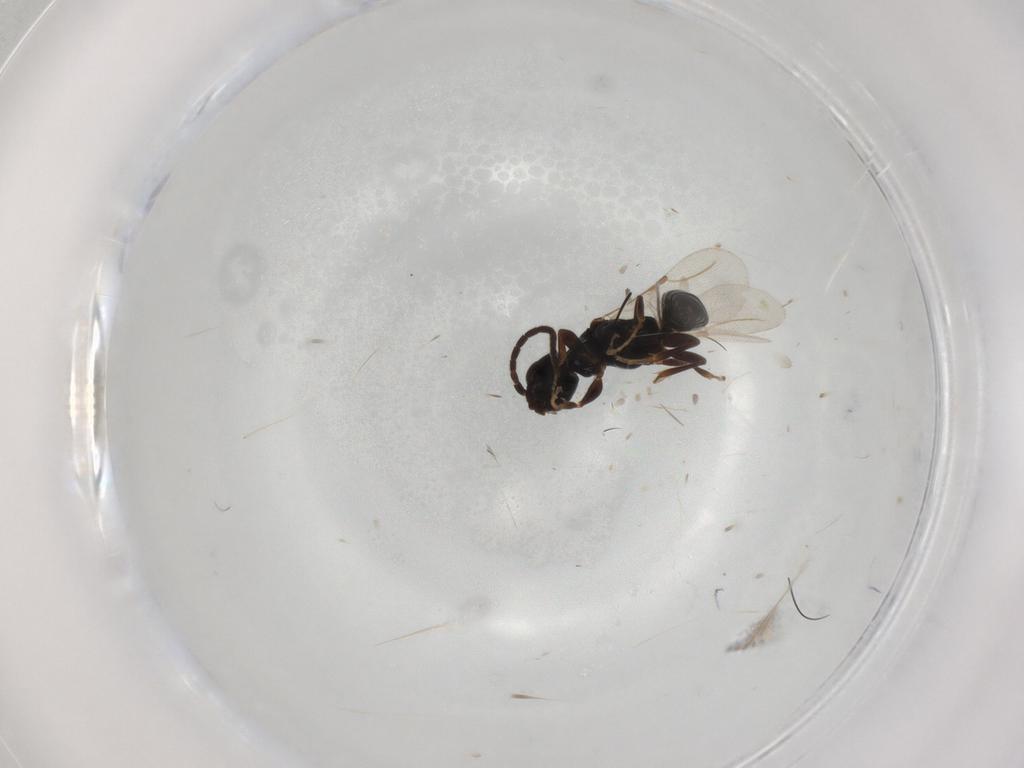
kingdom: Animalia
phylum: Arthropoda
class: Insecta
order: Hymenoptera
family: Bethylidae
